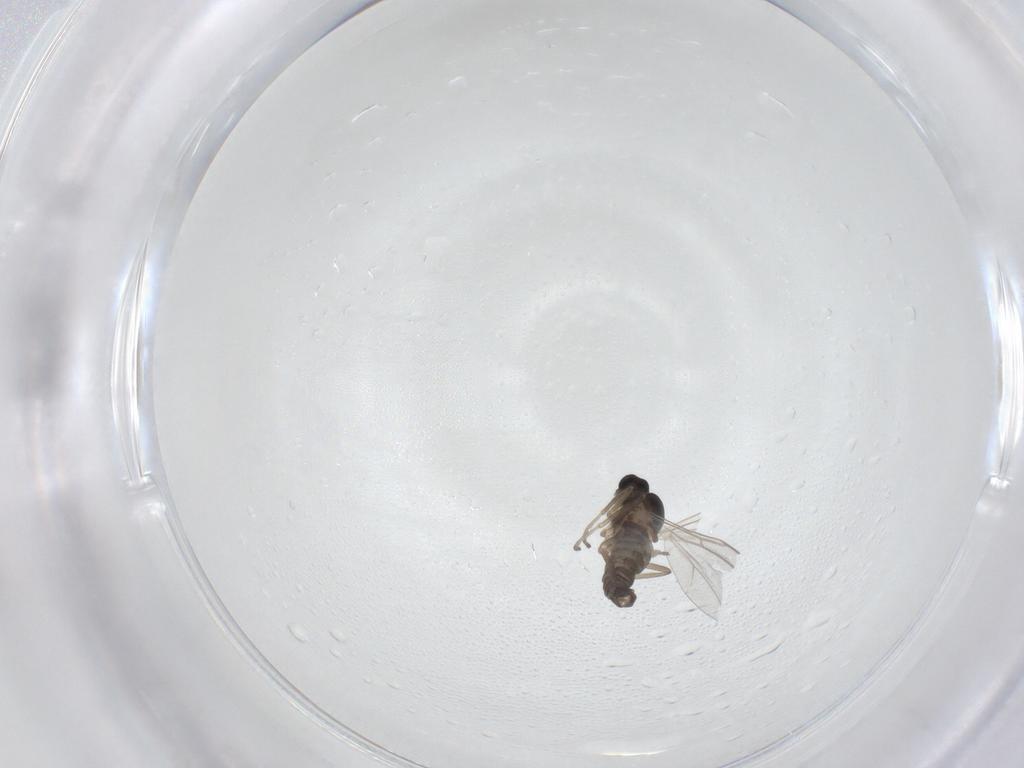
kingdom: Animalia
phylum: Arthropoda
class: Insecta
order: Diptera
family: Cecidomyiidae
